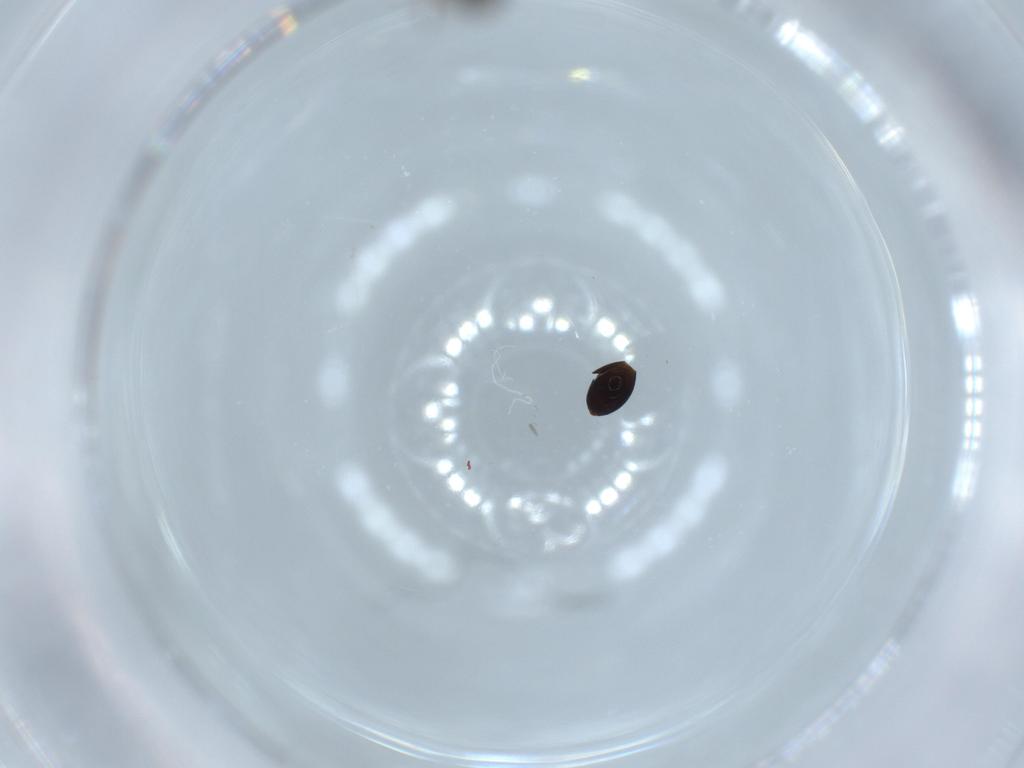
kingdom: Animalia
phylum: Arthropoda
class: Insecta
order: Hymenoptera
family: Diapriidae
